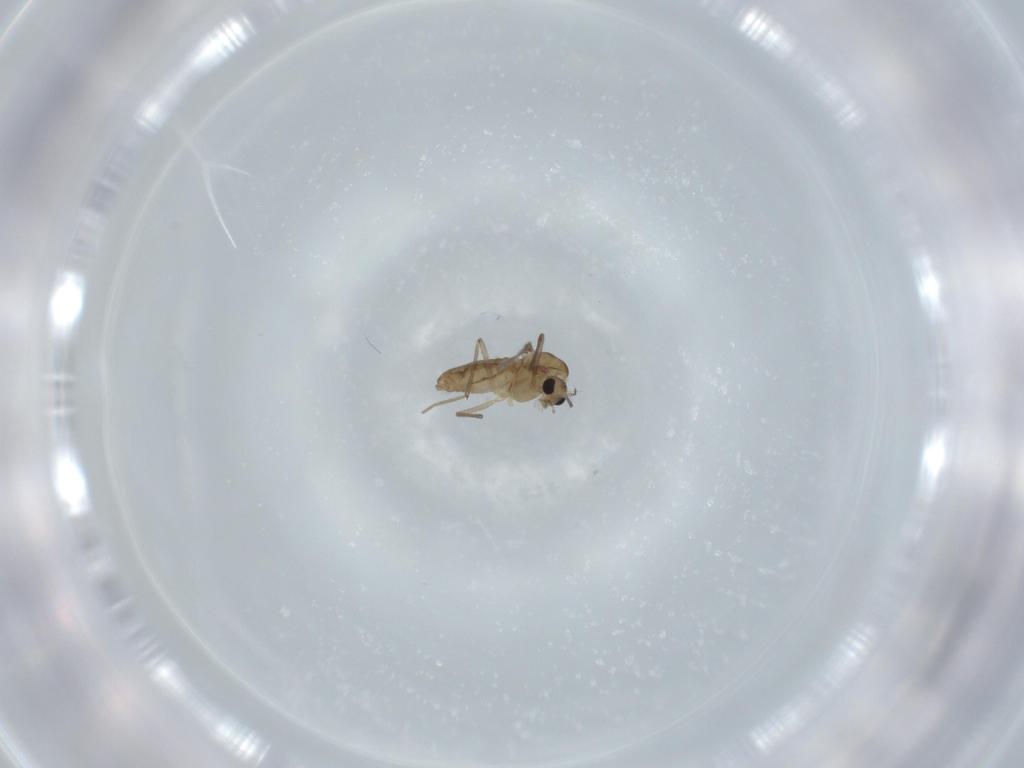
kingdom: Animalia
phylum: Arthropoda
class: Insecta
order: Diptera
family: Chironomidae
